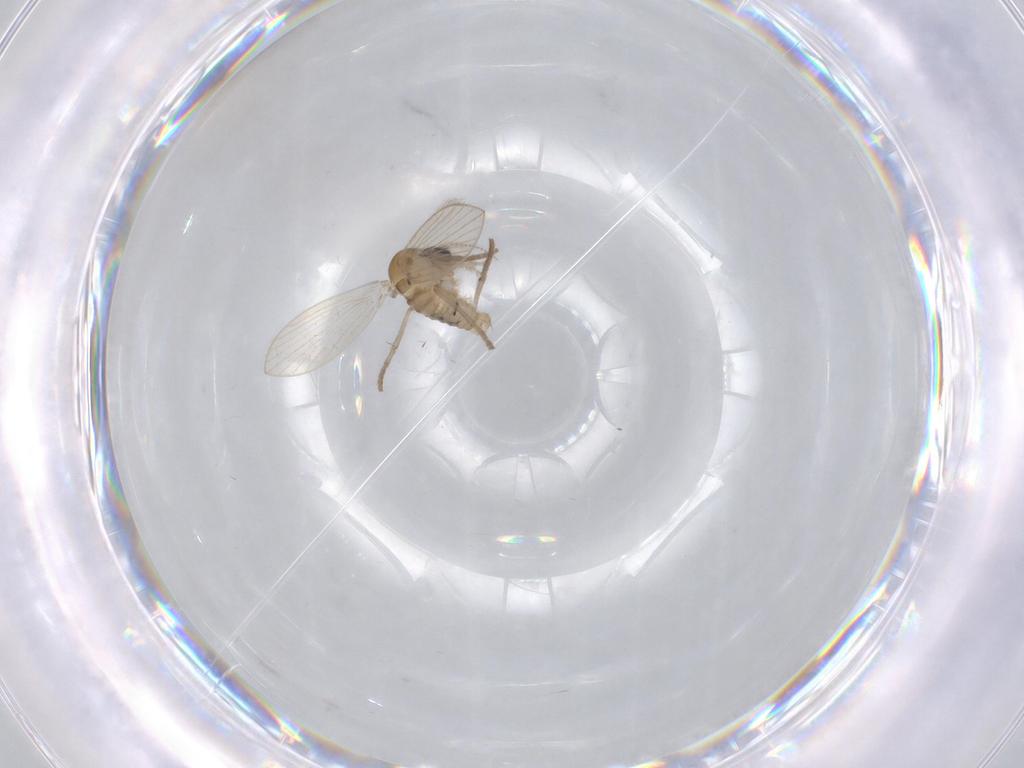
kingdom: Animalia
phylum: Arthropoda
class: Insecta
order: Diptera
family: Psychodidae
